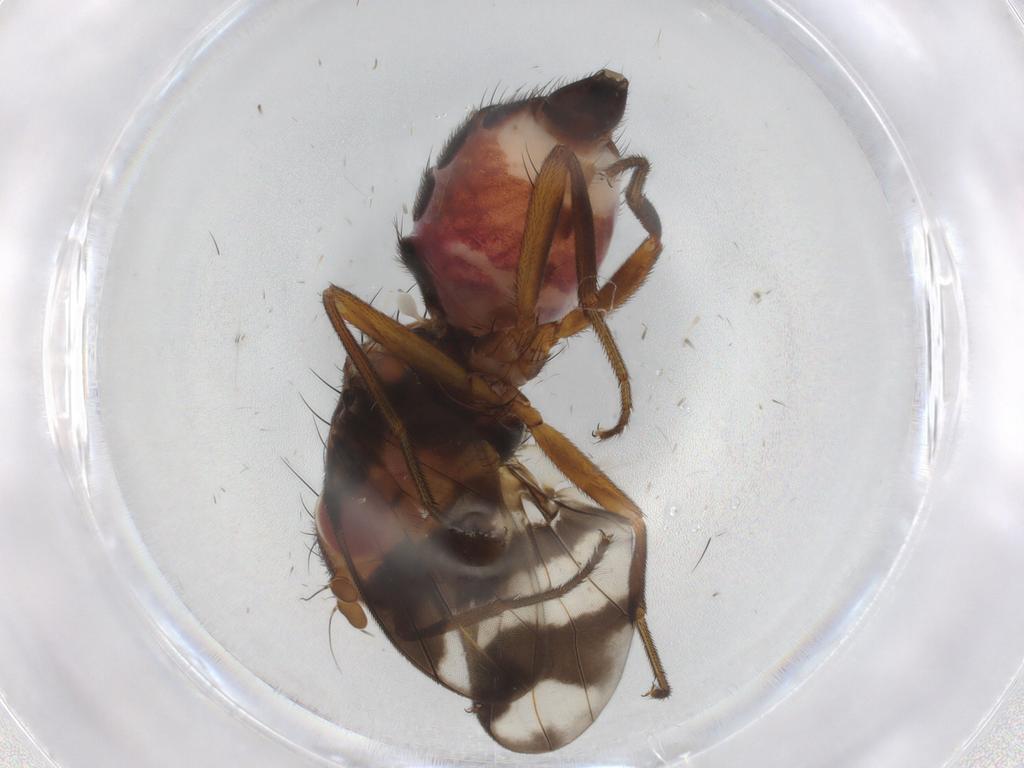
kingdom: Animalia
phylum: Arthropoda
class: Insecta
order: Diptera
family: Richardiidae
